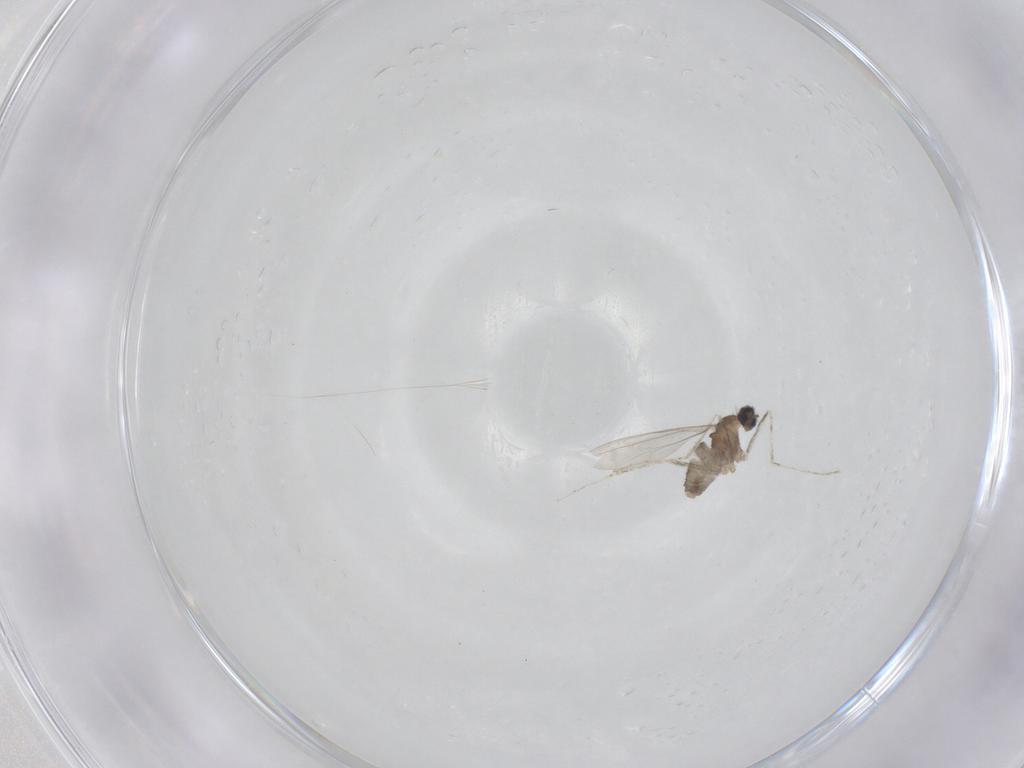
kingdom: Animalia
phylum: Arthropoda
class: Insecta
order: Diptera
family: Cecidomyiidae
